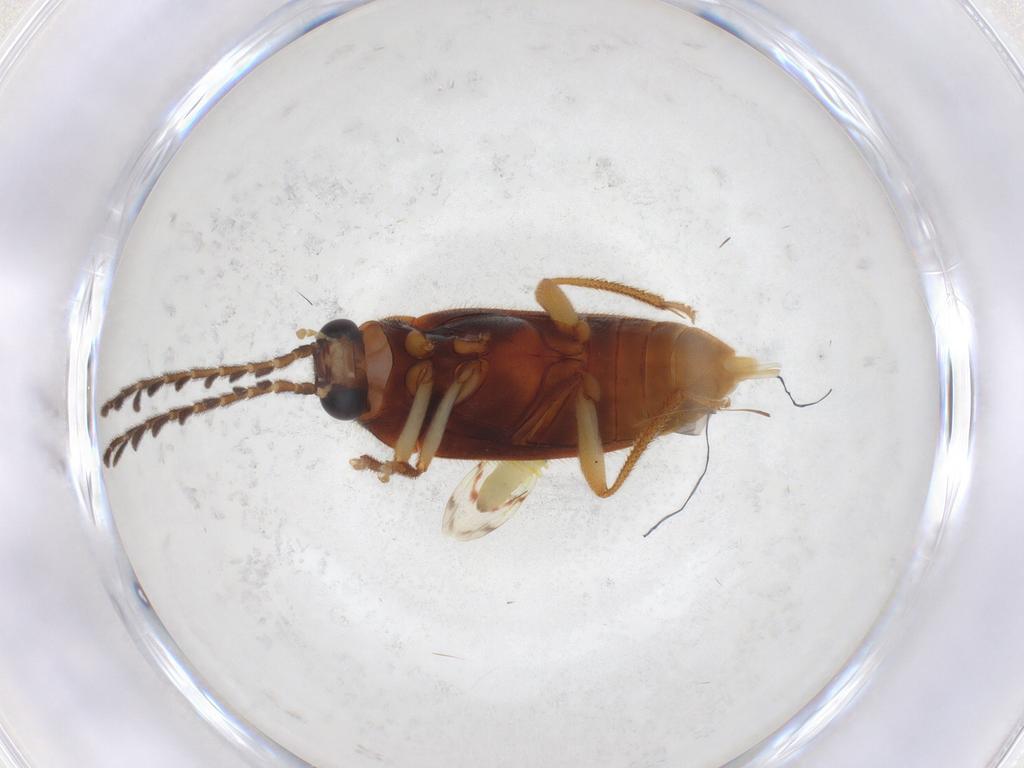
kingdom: Animalia
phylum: Arthropoda
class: Insecta
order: Coleoptera
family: Ptilodactylidae
